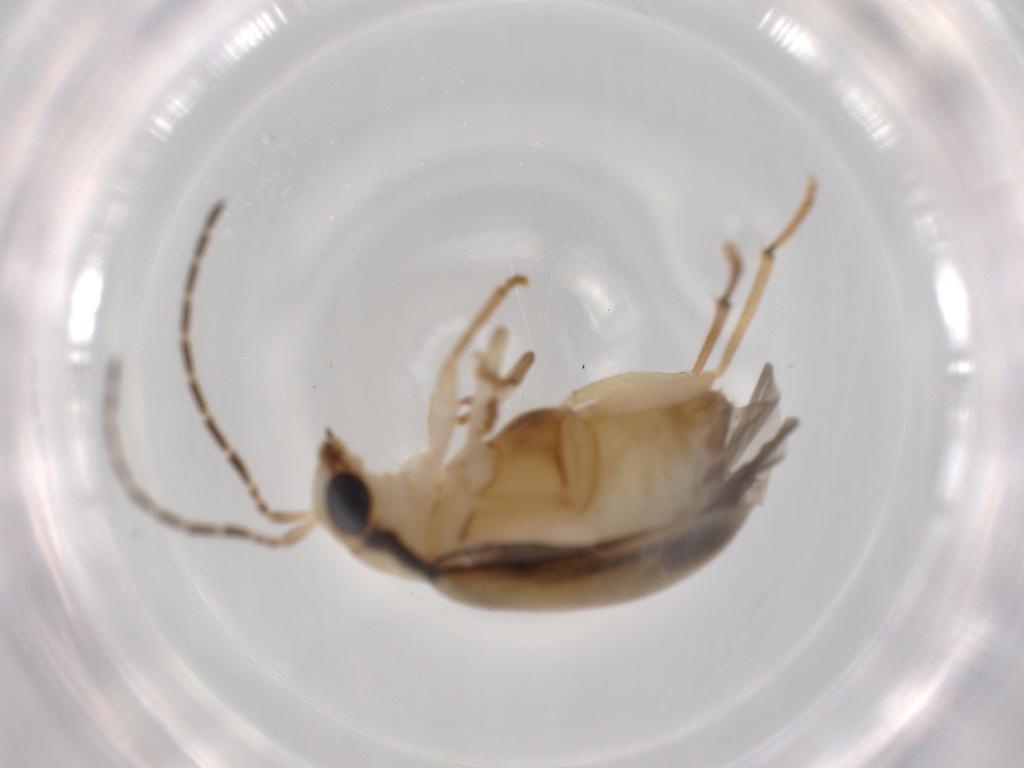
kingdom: Animalia
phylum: Arthropoda
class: Insecta
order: Coleoptera
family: Chrysomelidae
